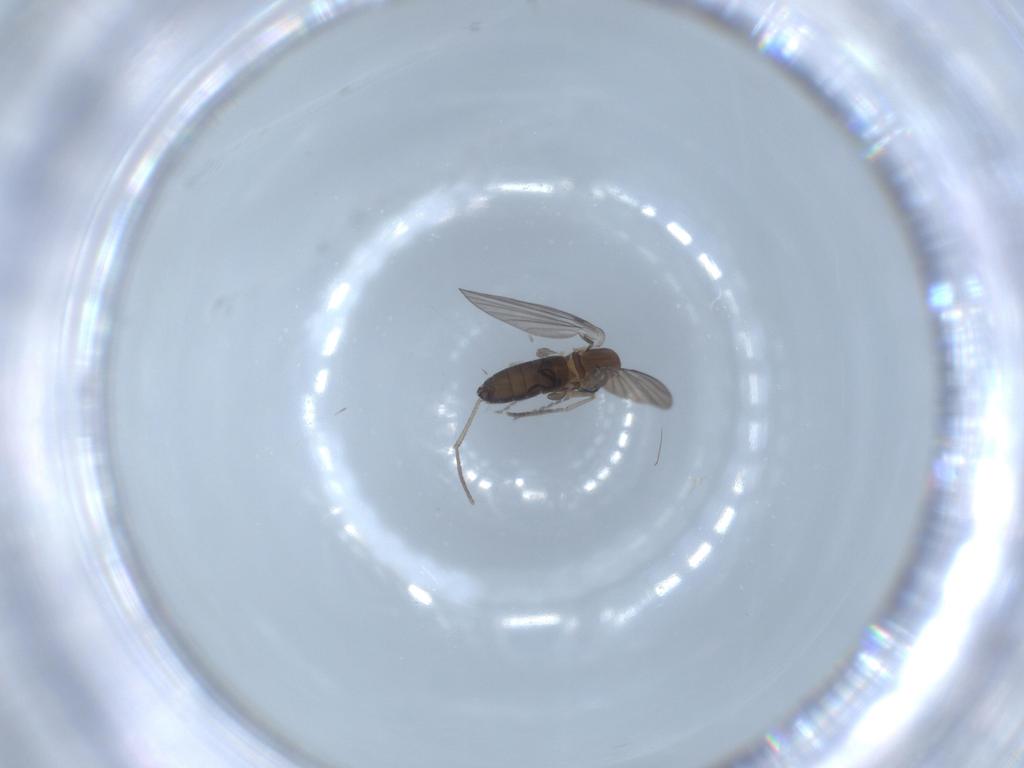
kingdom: Animalia
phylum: Arthropoda
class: Insecta
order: Diptera
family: Psychodidae
